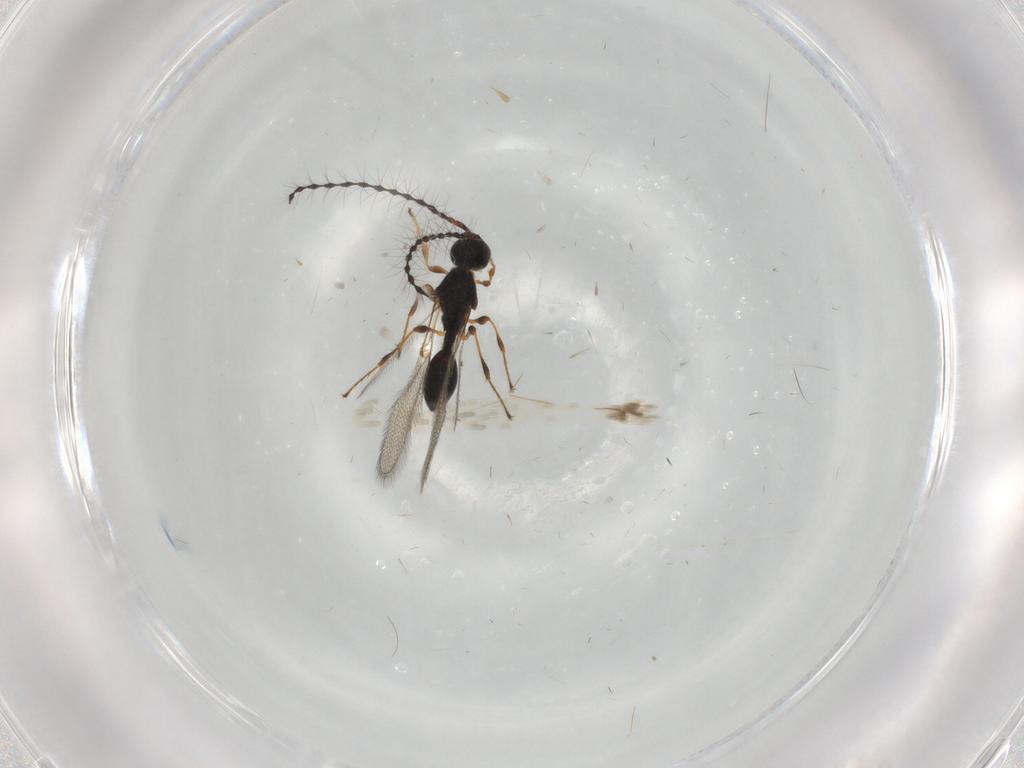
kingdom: Animalia
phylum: Arthropoda
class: Insecta
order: Hymenoptera
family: Diapriidae
